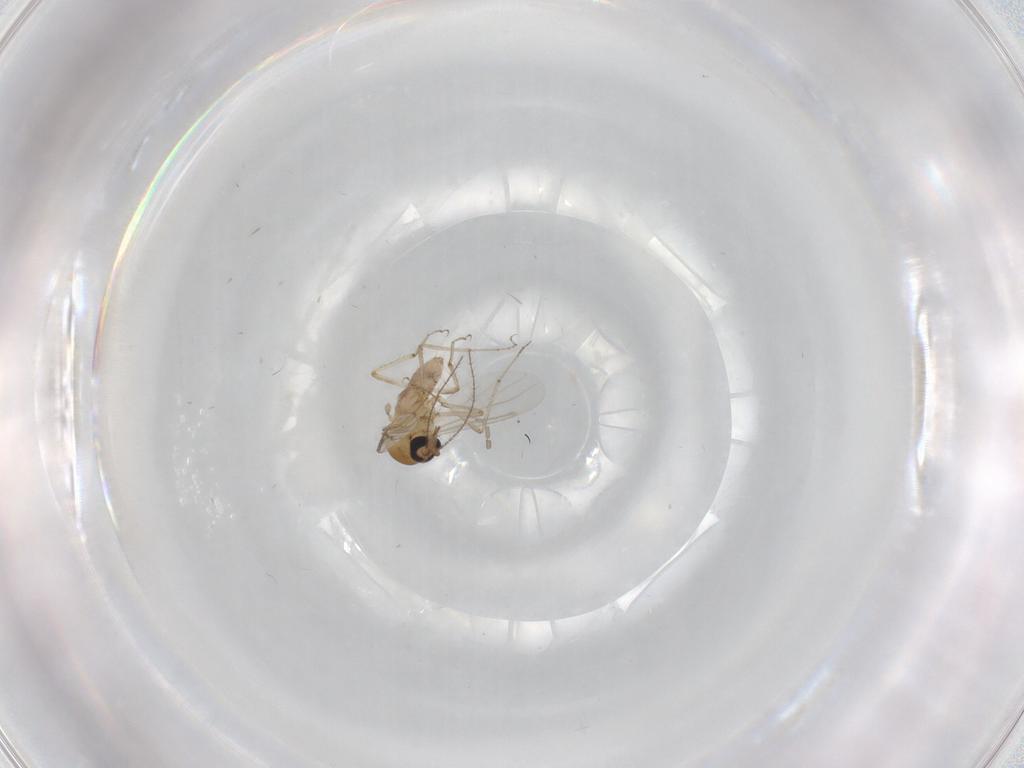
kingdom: Animalia
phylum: Arthropoda
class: Insecta
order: Diptera
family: Ceratopogonidae
